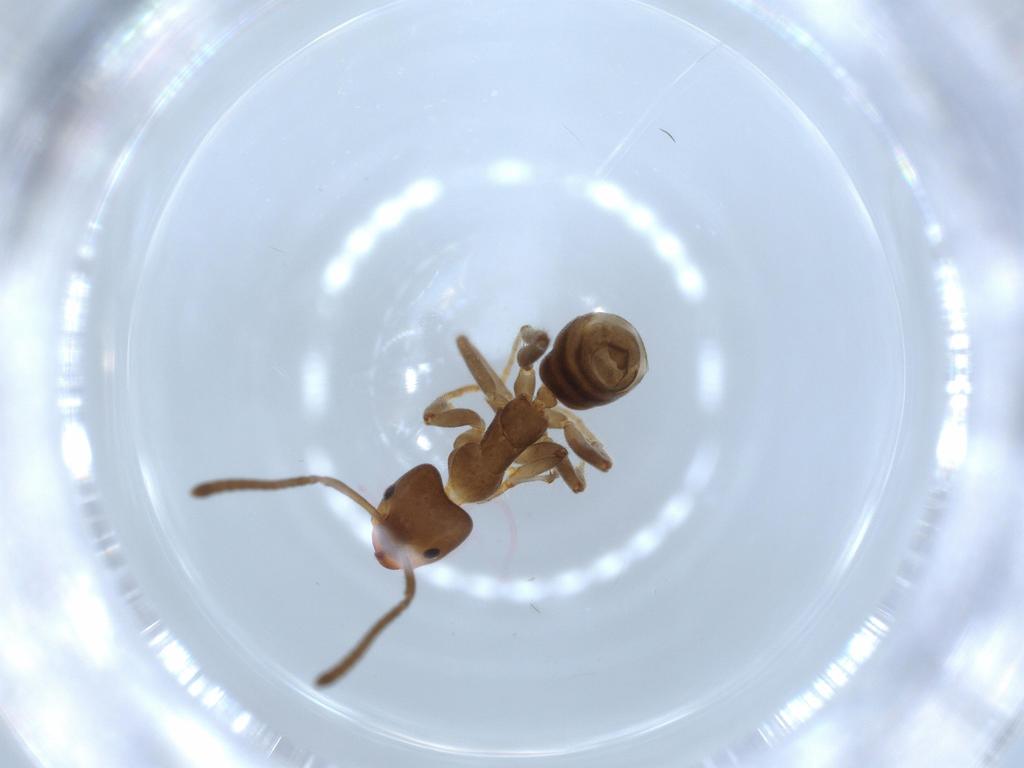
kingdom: Animalia
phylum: Arthropoda
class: Insecta
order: Hymenoptera
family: Formicidae
